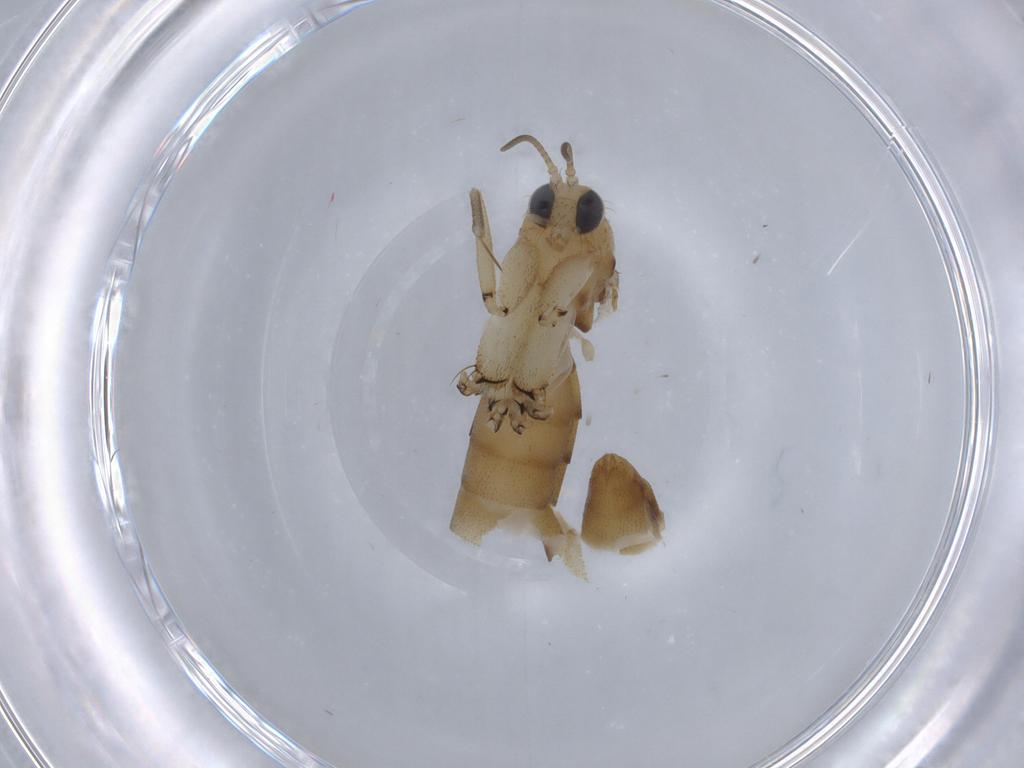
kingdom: Animalia
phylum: Arthropoda
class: Insecta
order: Diptera
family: Mycetophilidae
